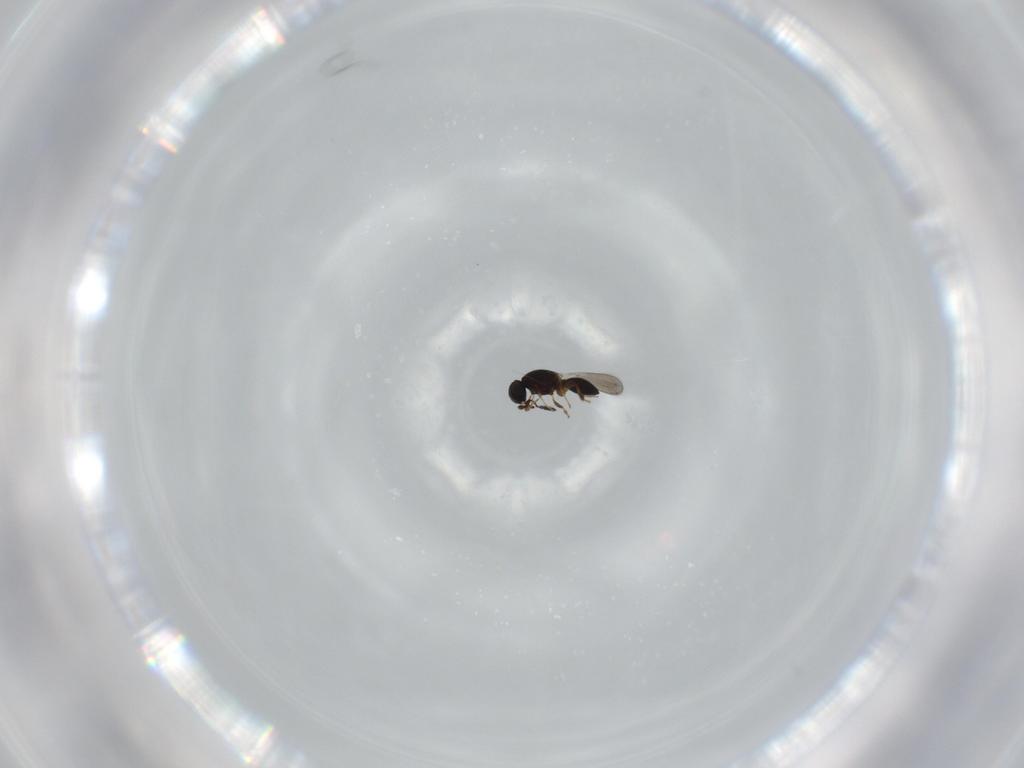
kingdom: Animalia
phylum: Arthropoda
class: Insecta
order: Hymenoptera
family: Platygastridae
